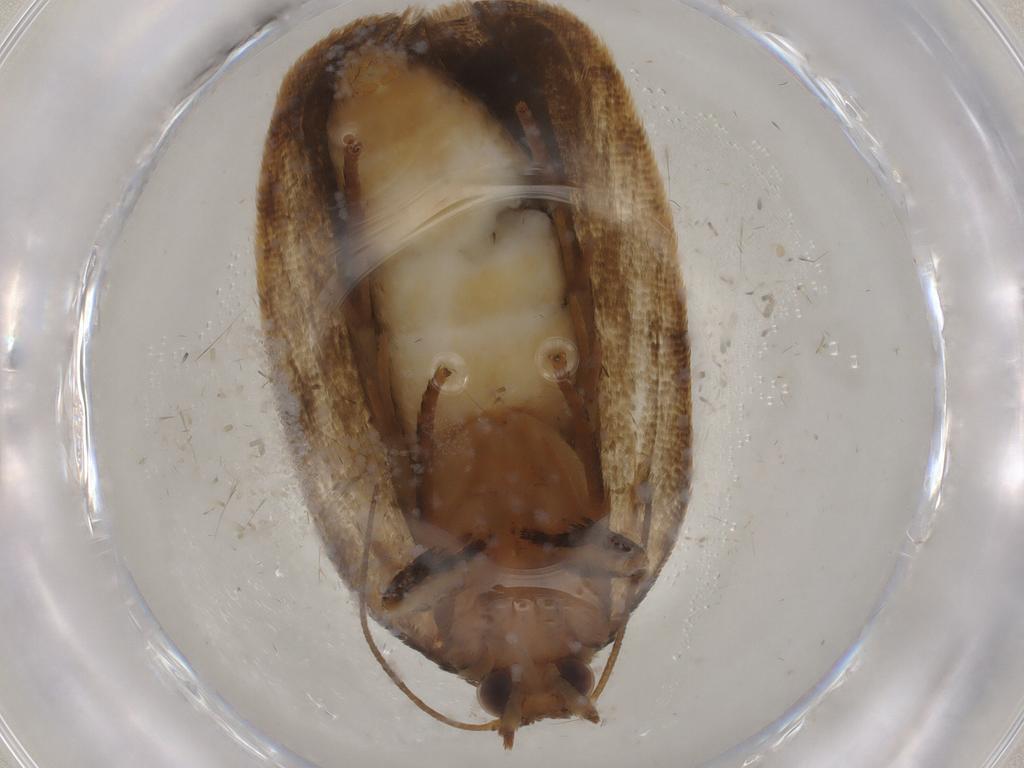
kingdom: Animalia
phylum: Arthropoda
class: Insecta
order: Lepidoptera
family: Tortricidae
